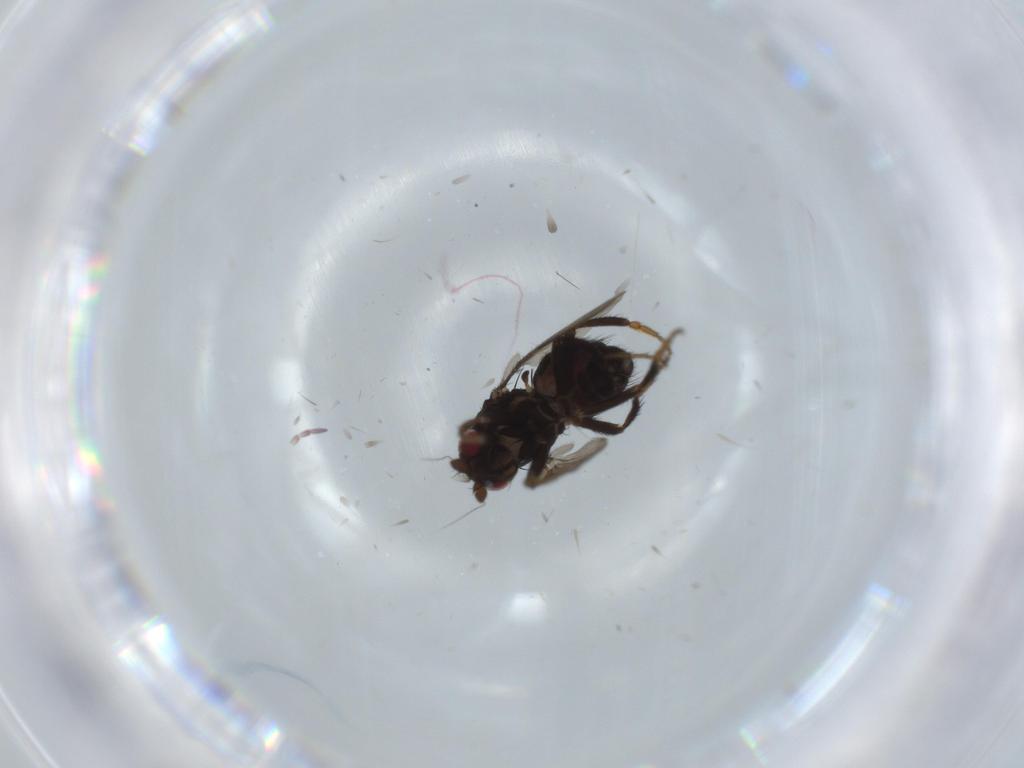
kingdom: Animalia
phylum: Arthropoda
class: Insecta
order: Diptera
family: Sphaeroceridae
